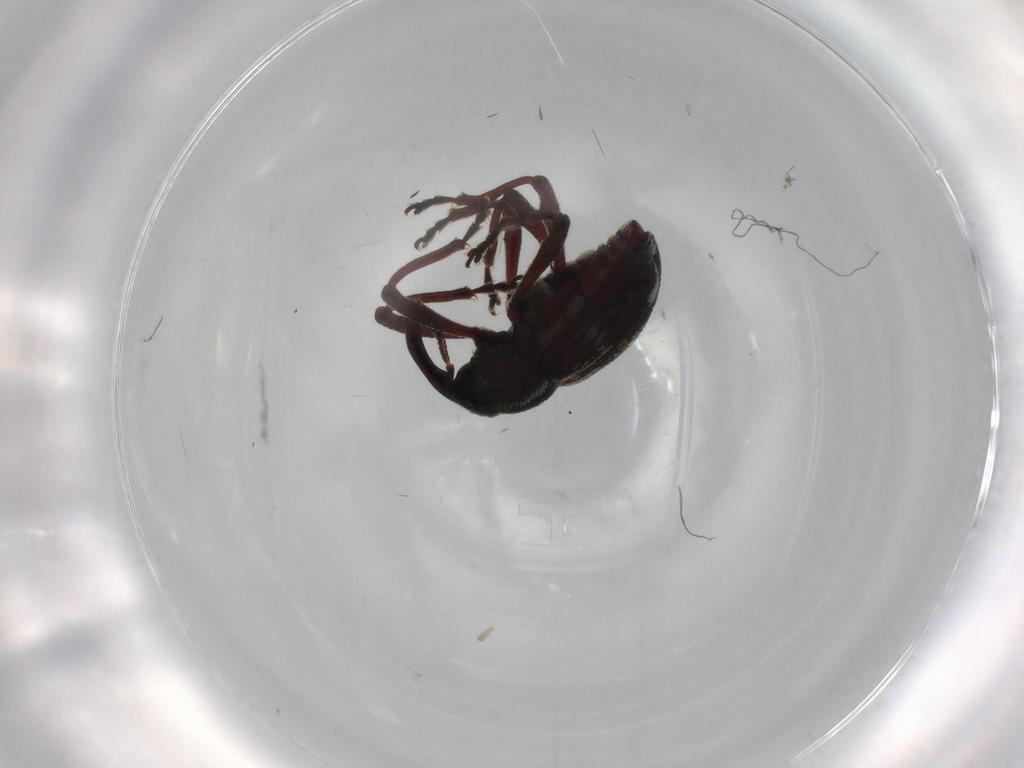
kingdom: Animalia
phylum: Arthropoda
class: Insecta
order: Coleoptera
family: Curculionidae
